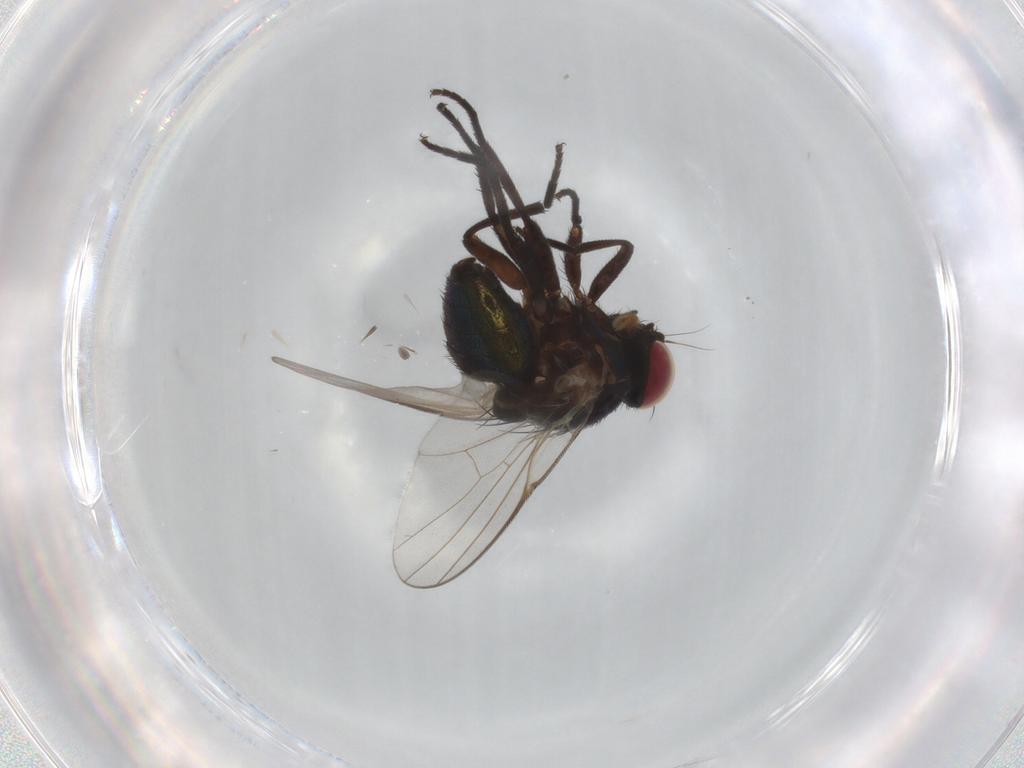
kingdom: Animalia
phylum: Arthropoda
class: Insecta
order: Diptera
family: Agromyzidae
